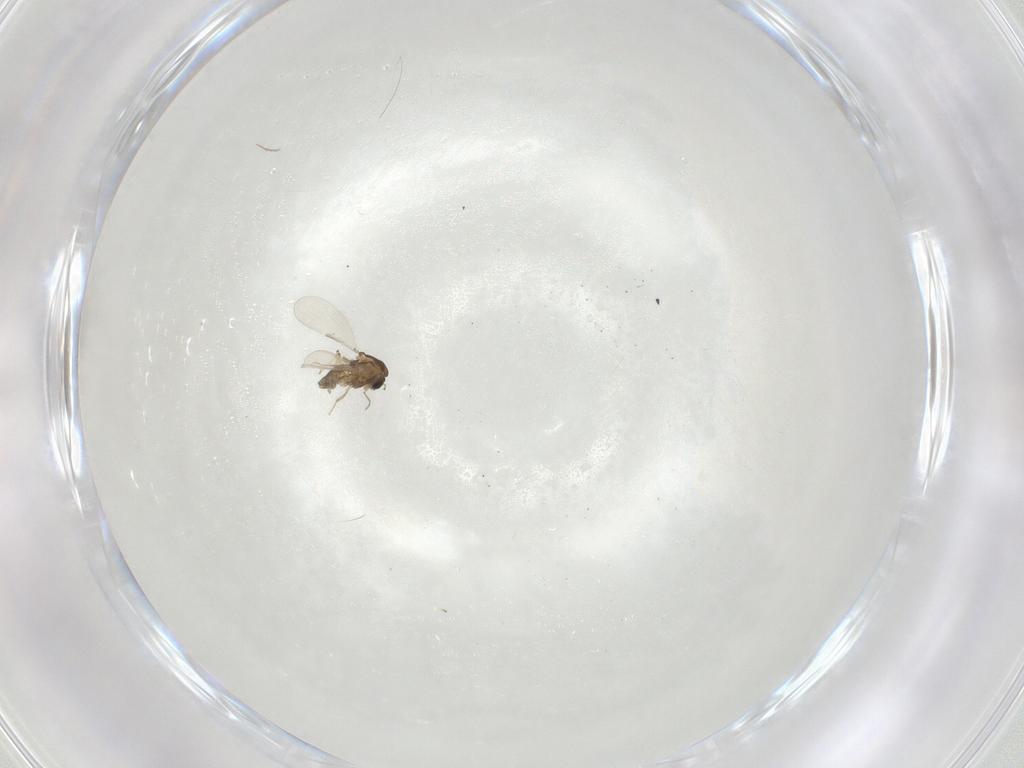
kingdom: Animalia
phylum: Arthropoda
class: Insecta
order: Diptera
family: Chironomidae
